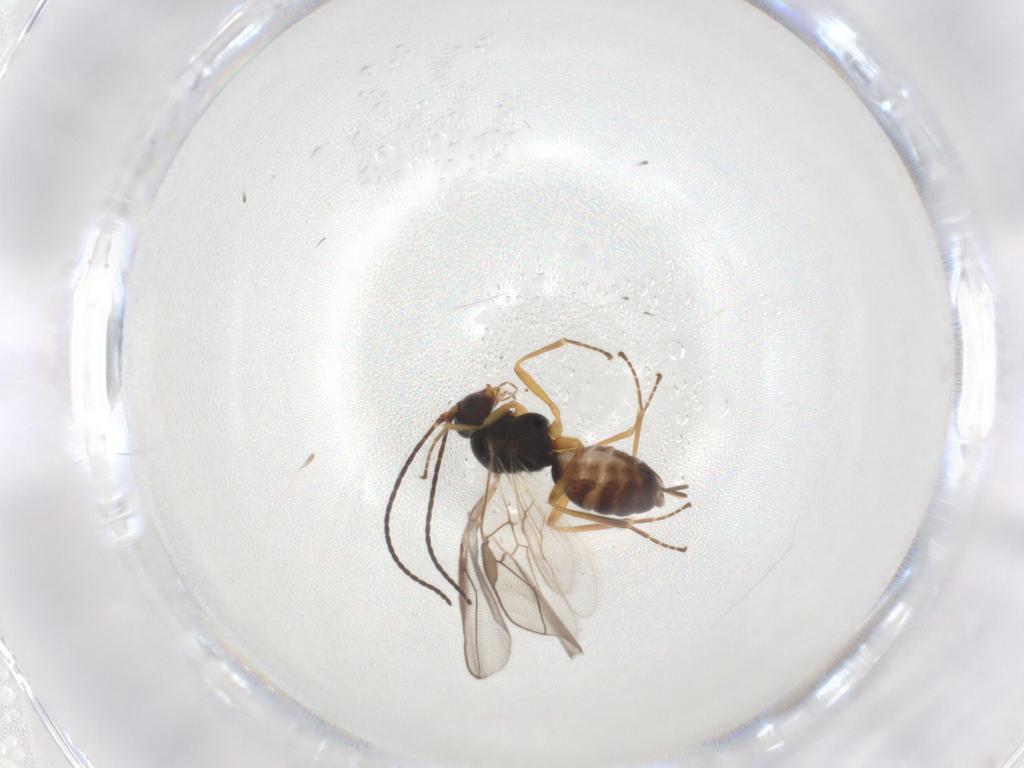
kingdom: Animalia
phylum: Arthropoda
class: Insecta
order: Hymenoptera
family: Braconidae
